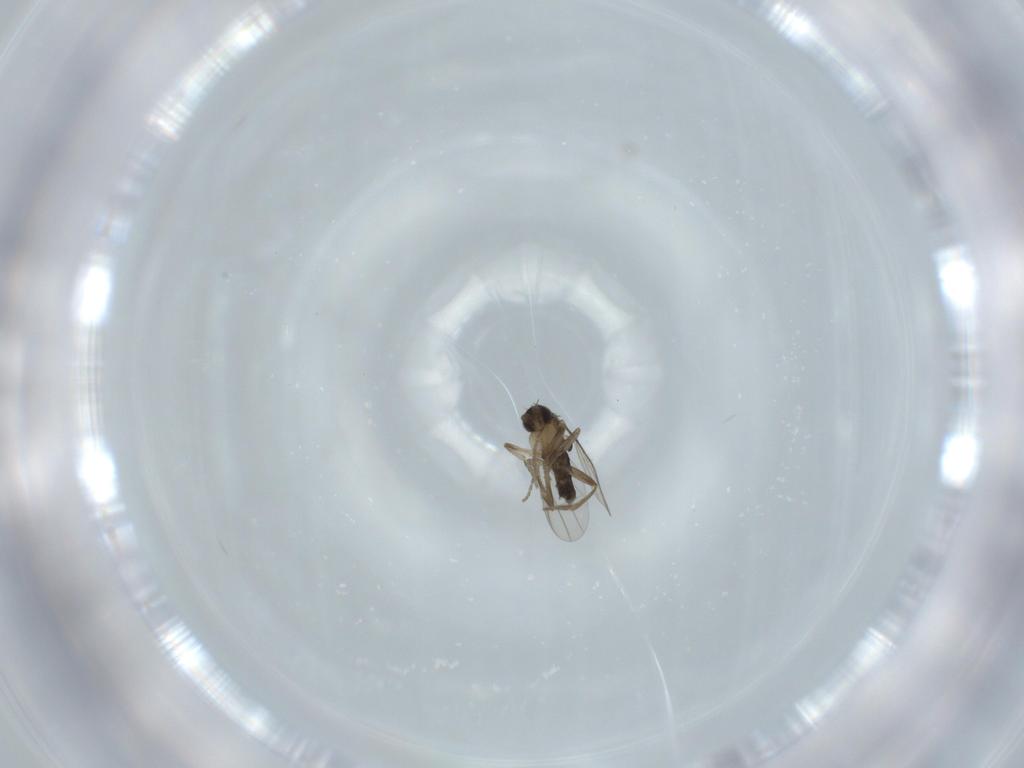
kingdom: Animalia
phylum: Arthropoda
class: Insecta
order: Diptera
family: Phoridae
